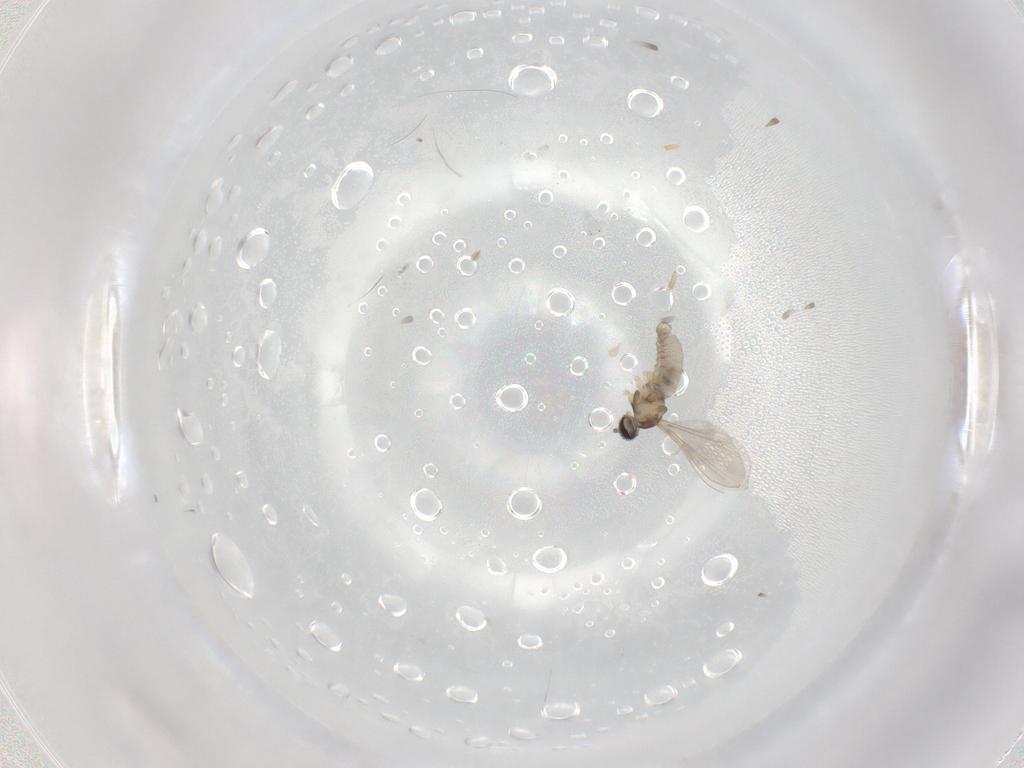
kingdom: Animalia
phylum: Arthropoda
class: Insecta
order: Diptera
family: Cecidomyiidae
